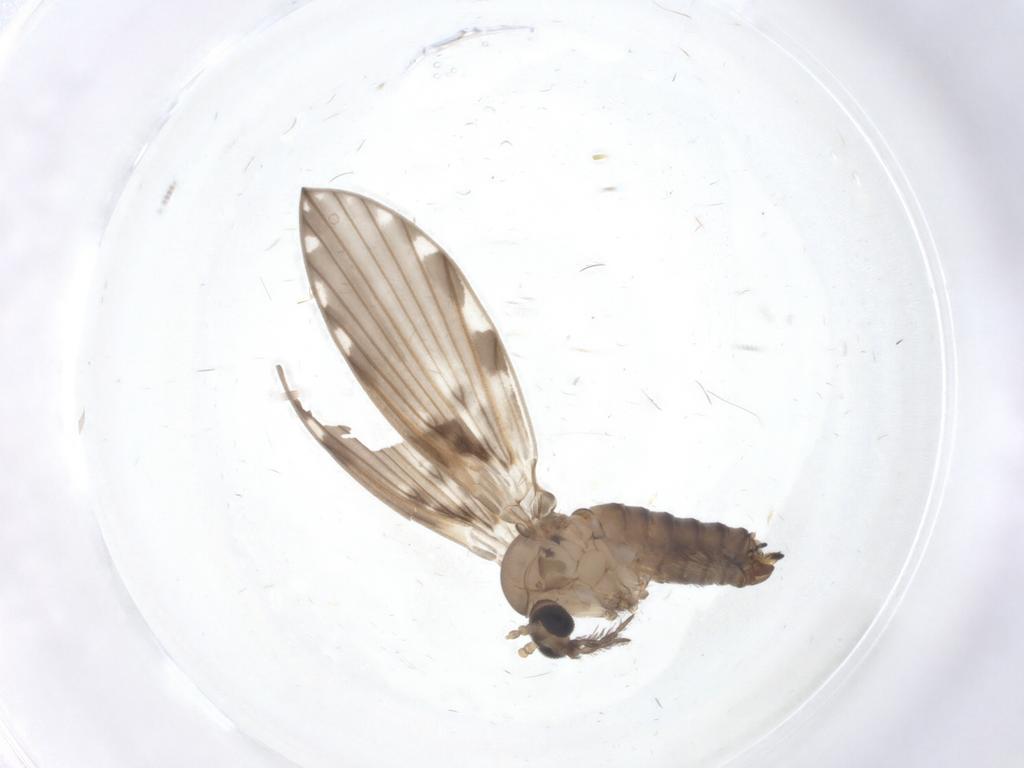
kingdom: Animalia
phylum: Arthropoda
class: Insecta
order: Diptera
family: Psychodidae
